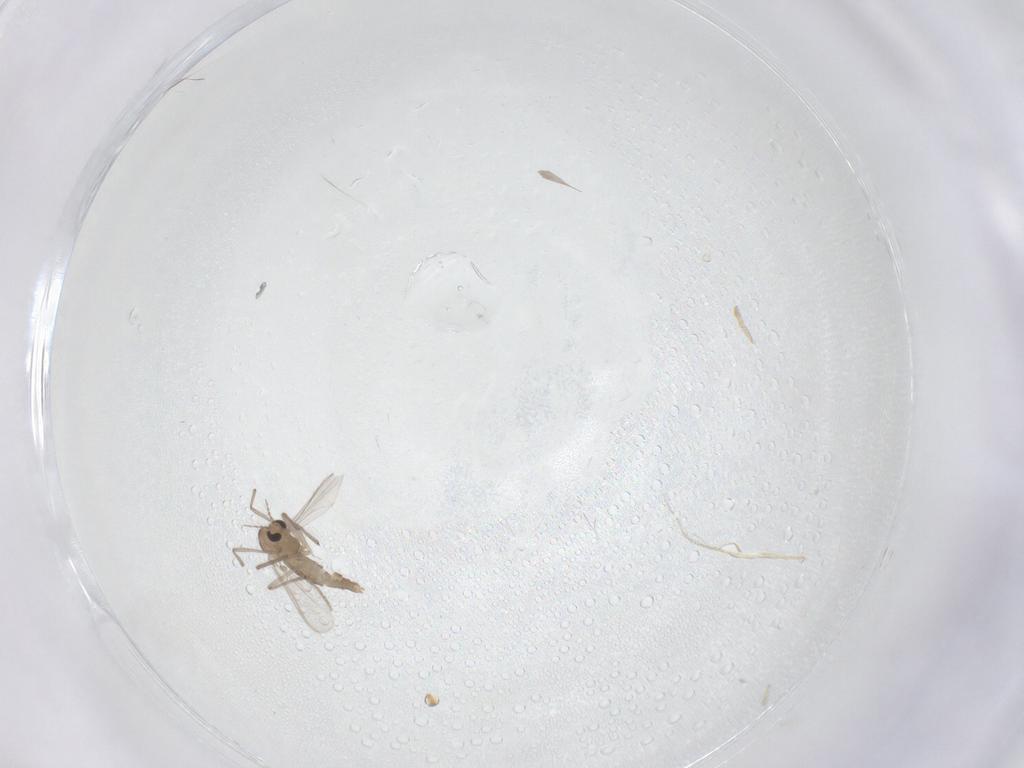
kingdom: Animalia
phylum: Arthropoda
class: Insecta
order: Diptera
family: Chironomidae
